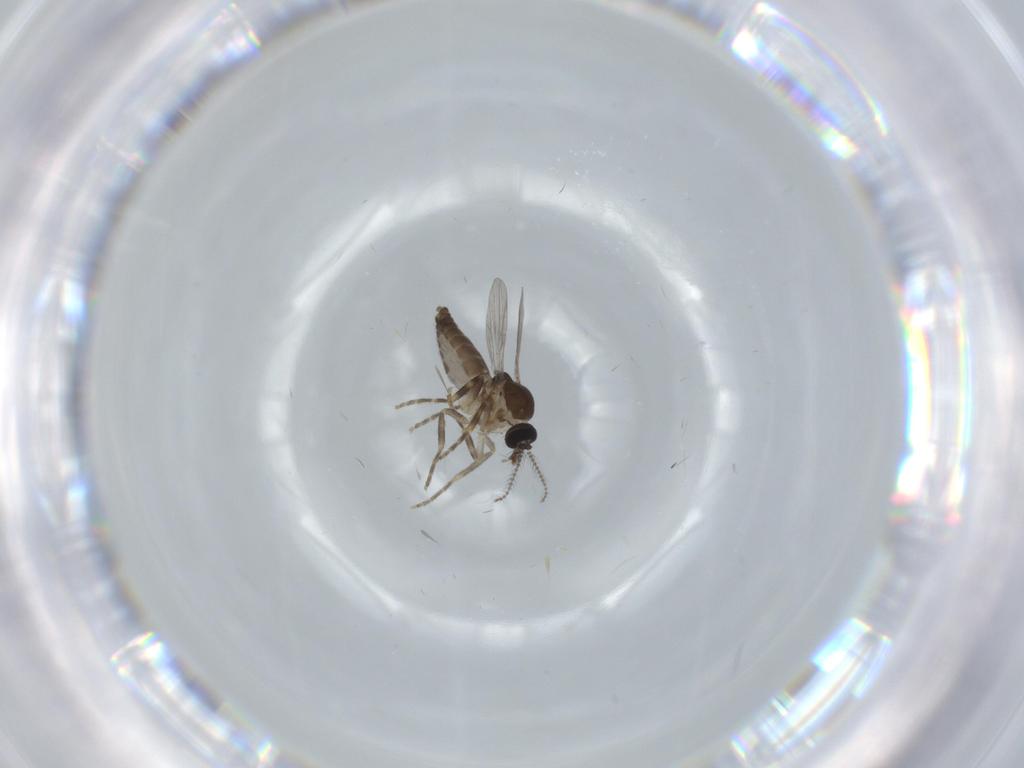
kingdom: Animalia
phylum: Arthropoda
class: Insecta
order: Diptera
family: Ceratopogonidae
